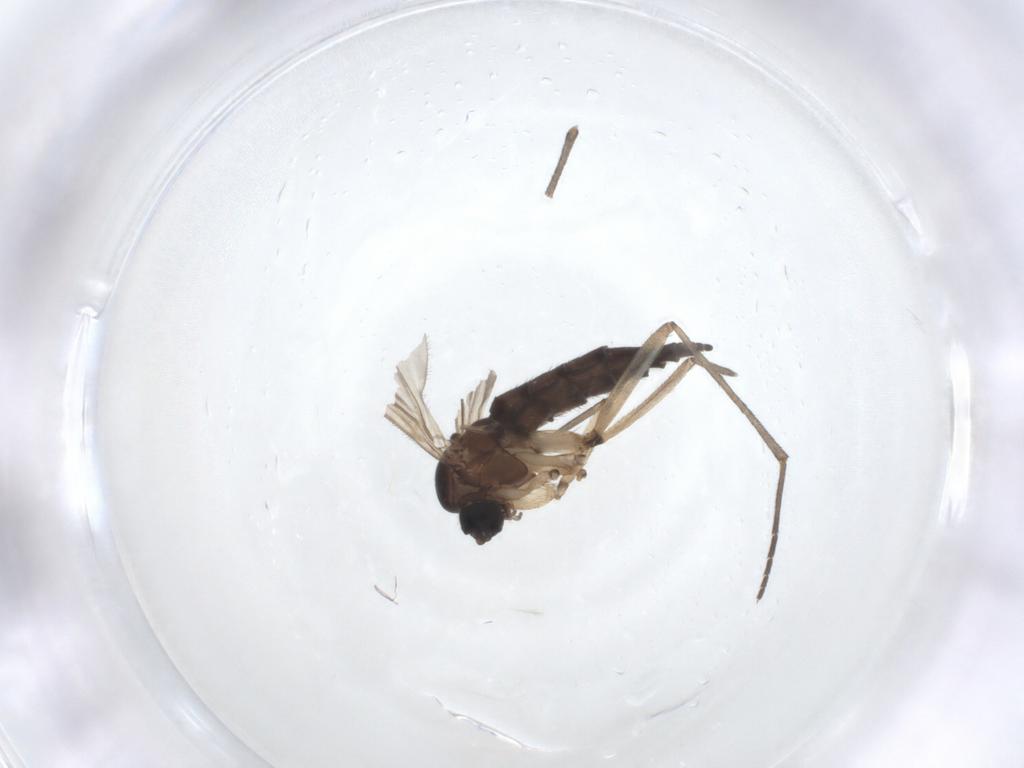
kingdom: Animalia
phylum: Arthropoda
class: Insecta
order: Diptera
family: Sciaridae
